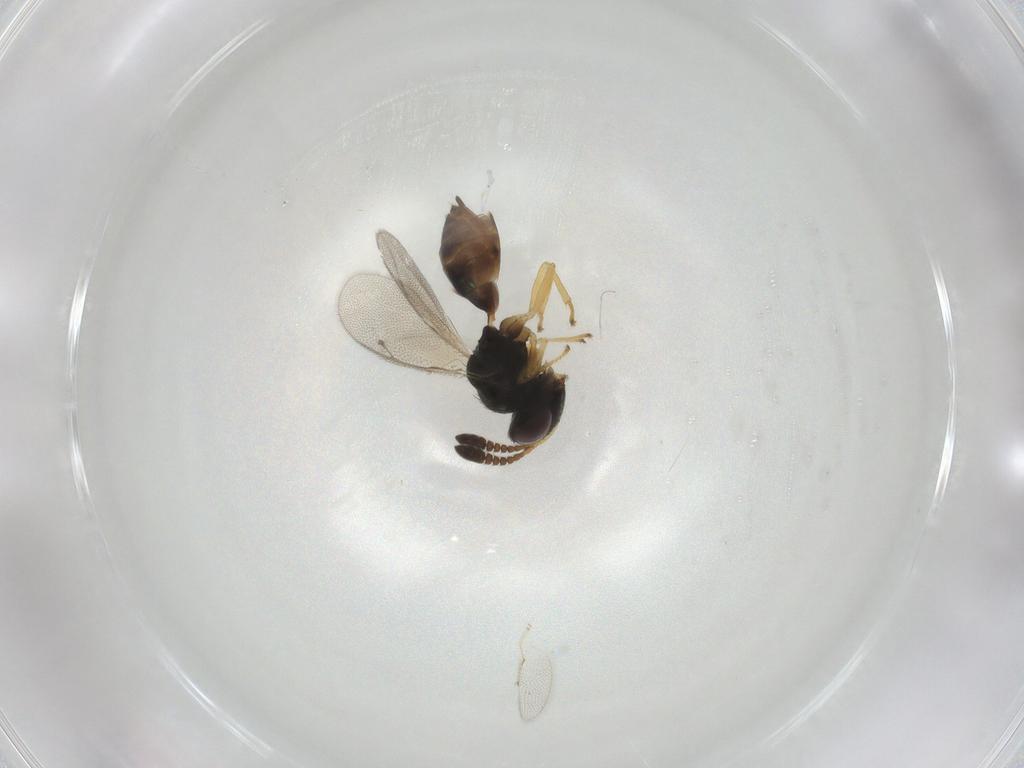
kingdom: Animalia
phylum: Arthropoda
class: Insecta
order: Hymenoptera
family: Pteromalidae
